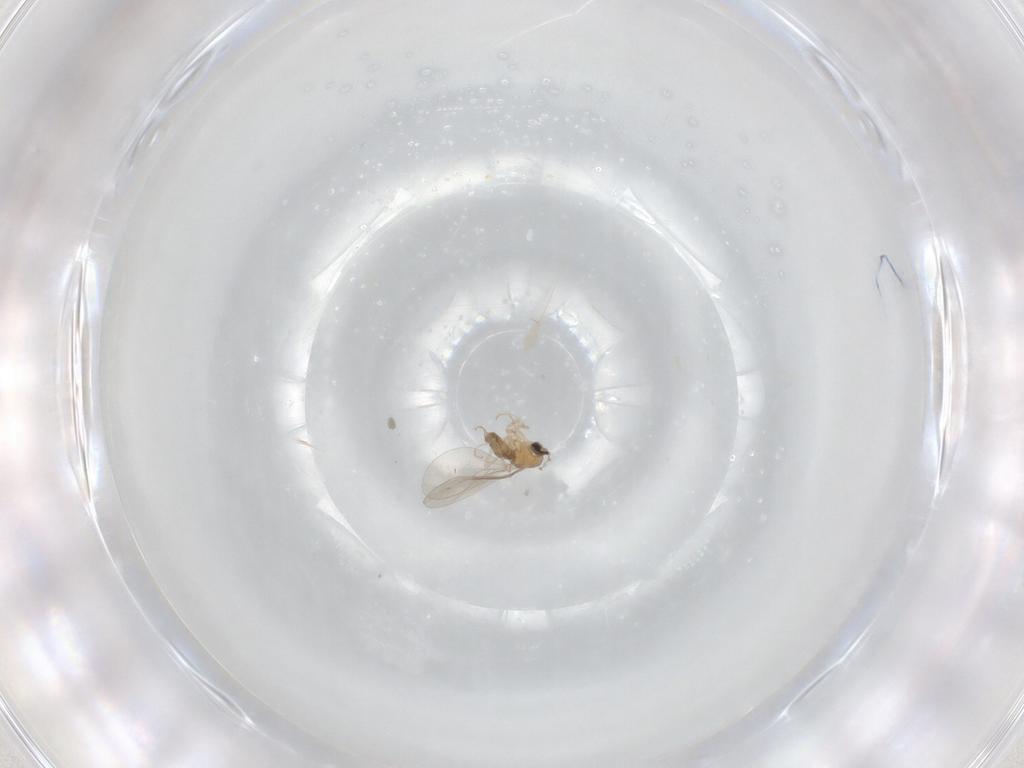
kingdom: Animalia
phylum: Arthropoda
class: Insecta
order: Diptera
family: Cecidomyiidae
